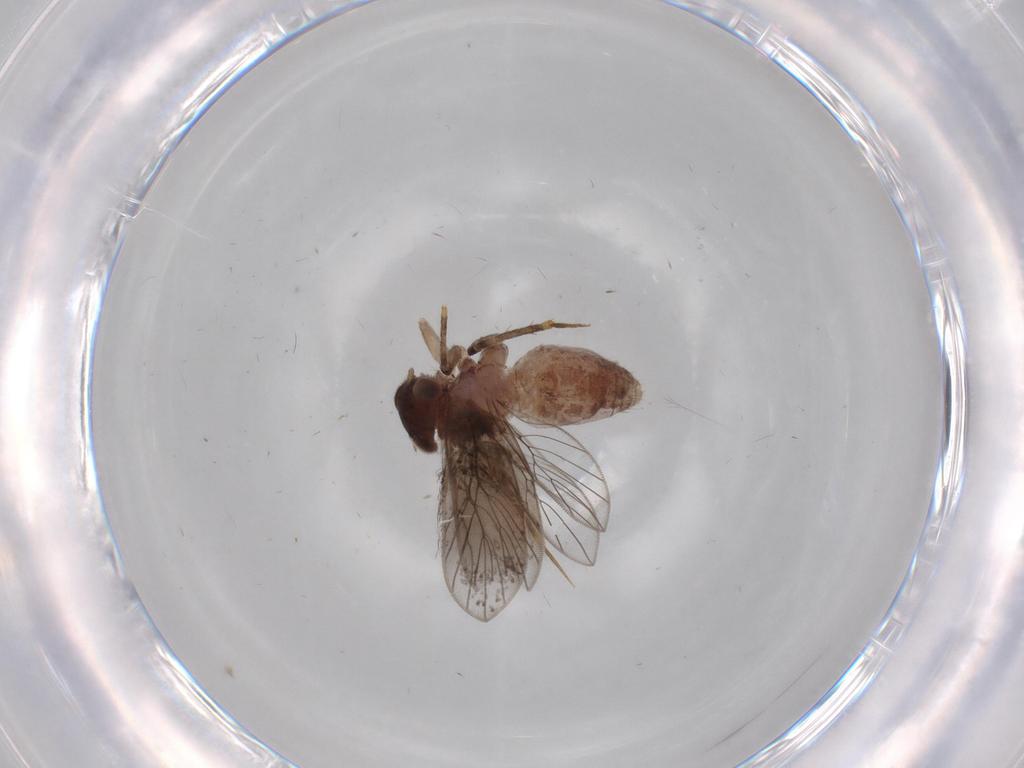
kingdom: Animalia
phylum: Arthropoda
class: Insecta
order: Psocodea
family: Lepidopsocidae
